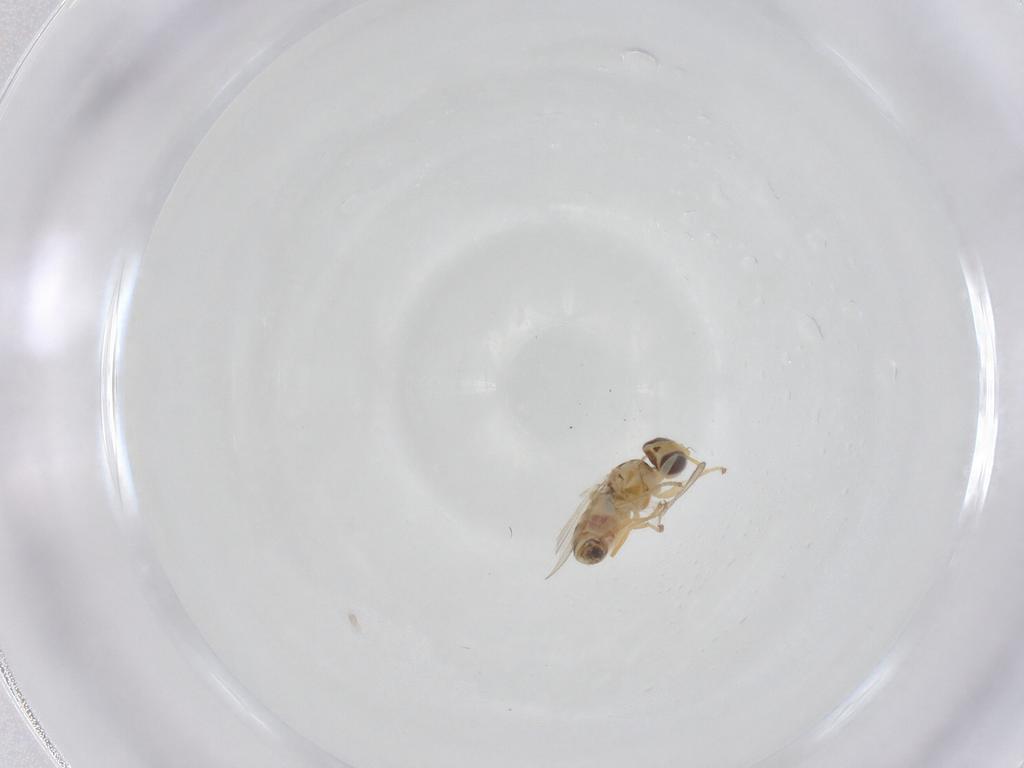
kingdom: Animalia
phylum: Arthropoda
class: Insecta
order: Diptera
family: Chyromyidae
